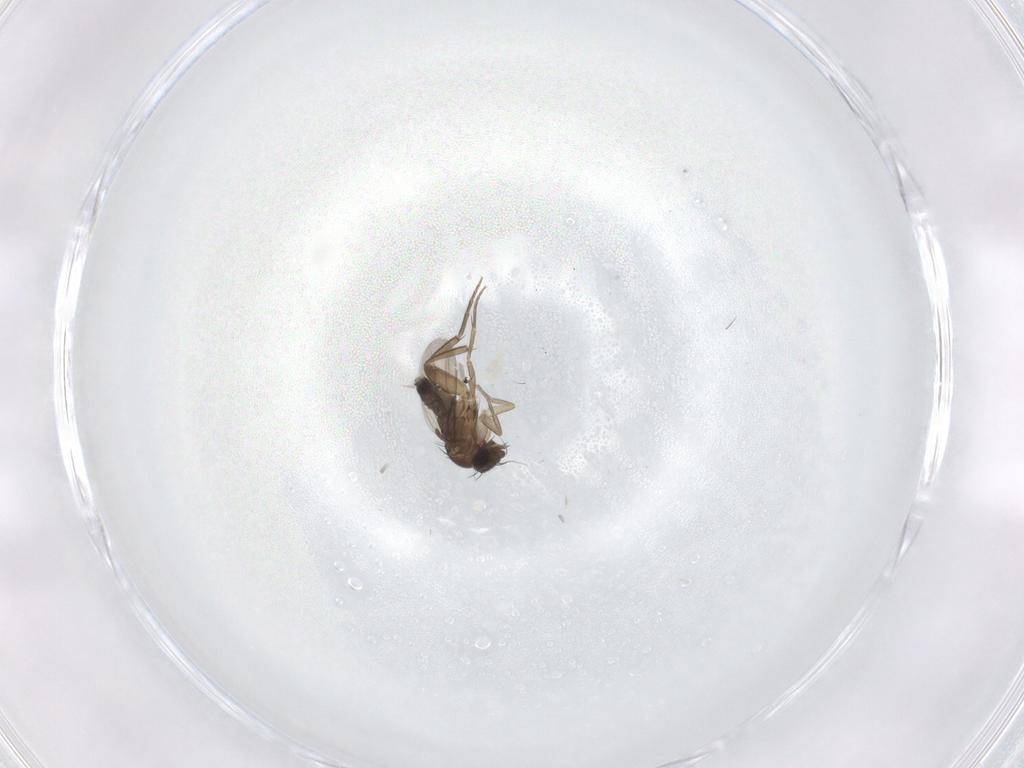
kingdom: Animalia
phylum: Arthropoda
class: Insecta
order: Diptera
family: Phoridae
